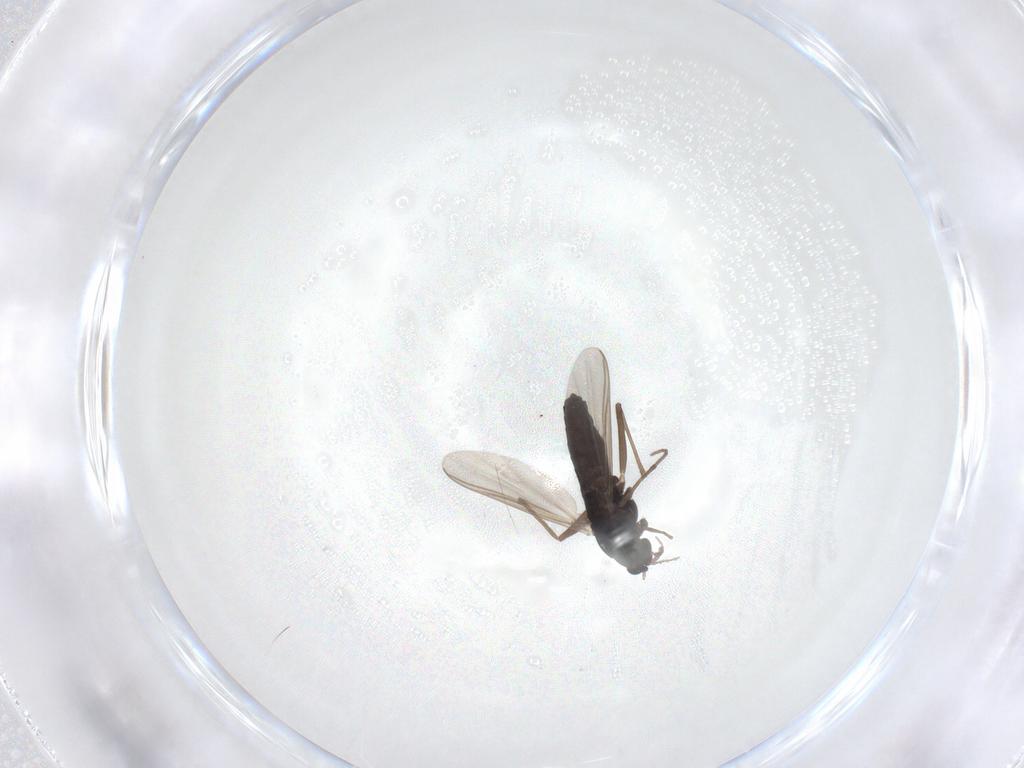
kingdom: Animalia
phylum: Arthropoda
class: Insecta
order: Diptera
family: Chironomidae
